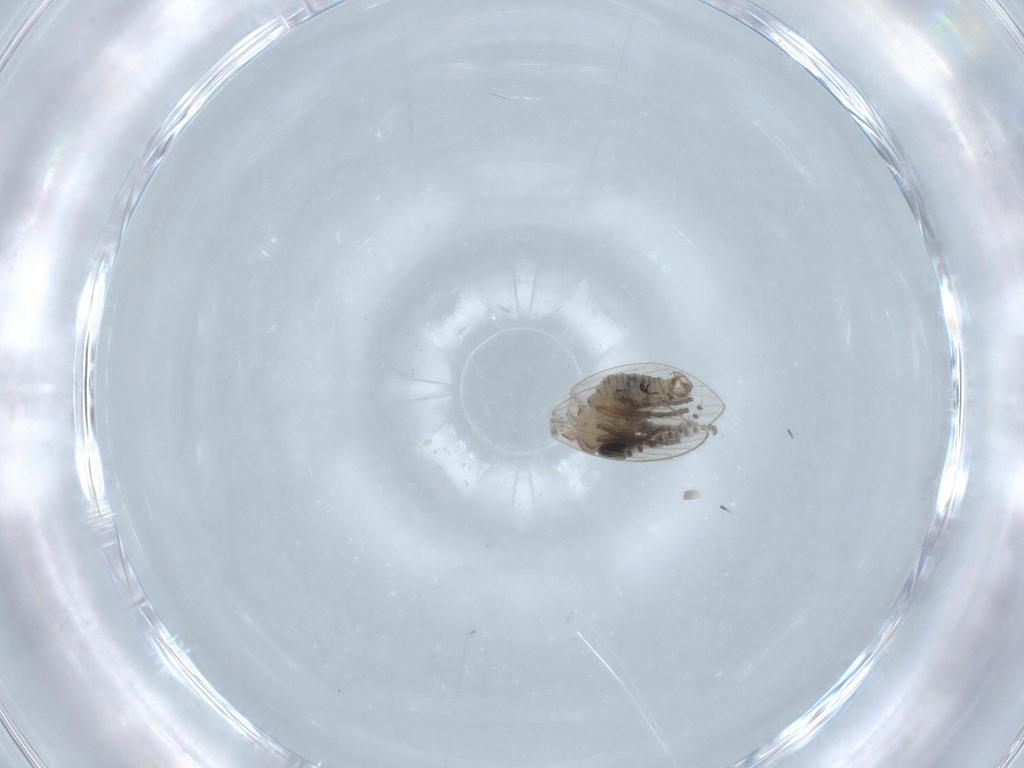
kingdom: Animalia
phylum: Arthropoda
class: Insecta
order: Diptera
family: Psychodidae
